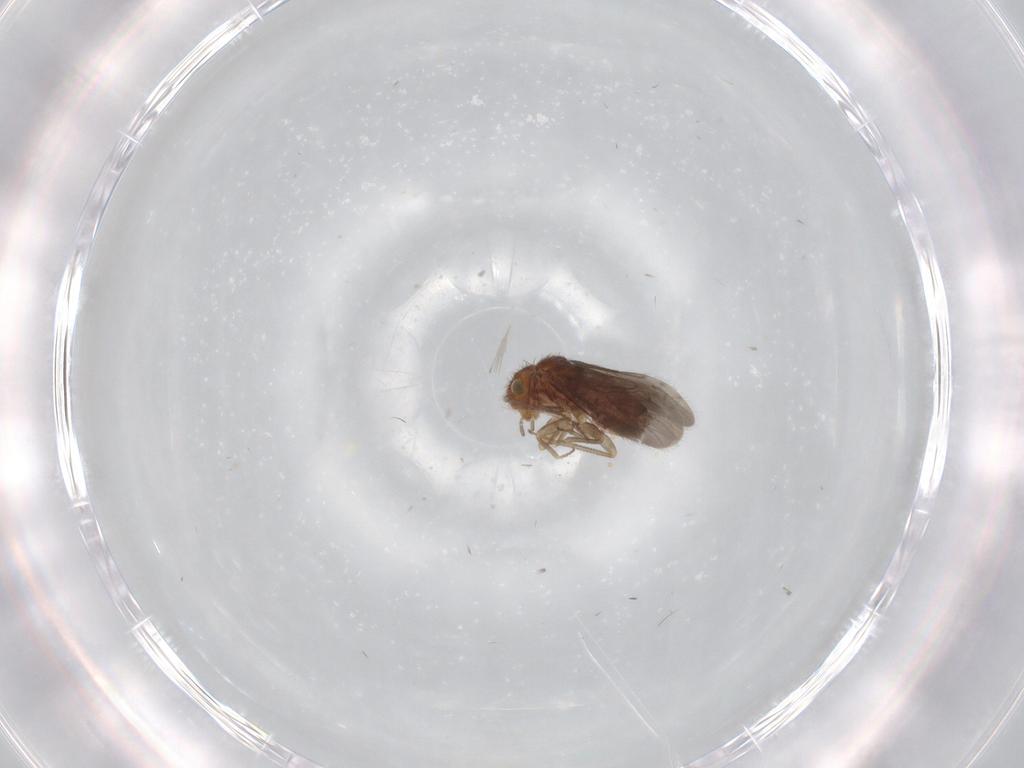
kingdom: Animalia
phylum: Arthropoda
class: Insecta
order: Psocodea
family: Ectopsocidae
